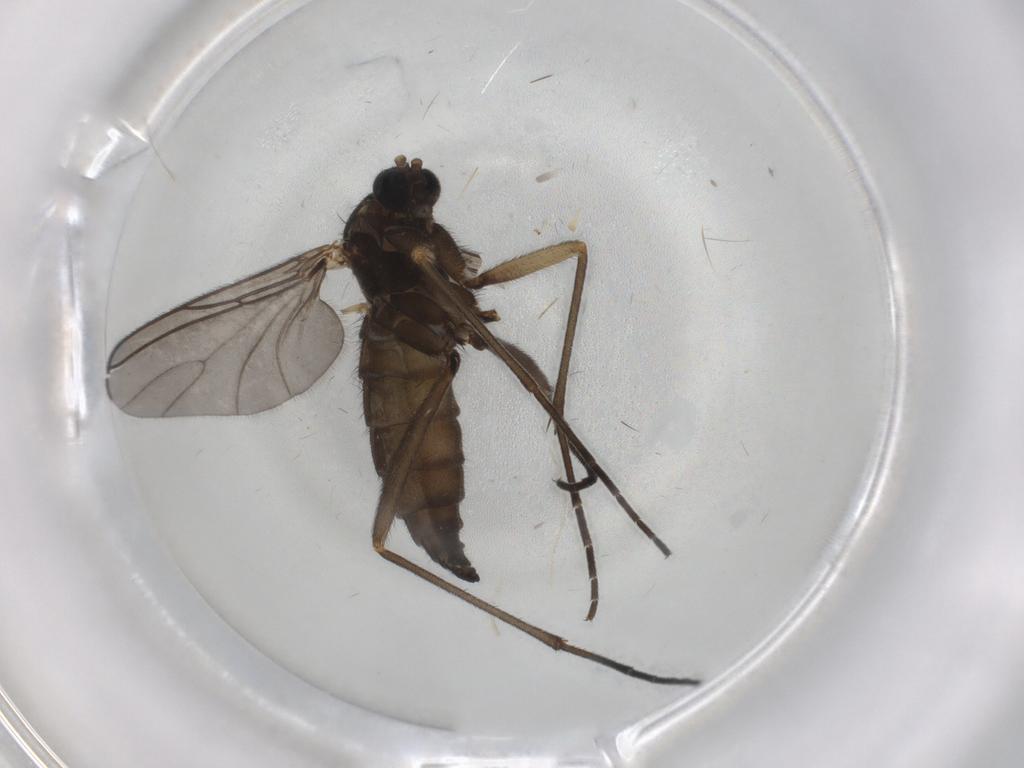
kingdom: Animalia
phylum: Arthropoda
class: Insecta
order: Diptera
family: Sciaridae
